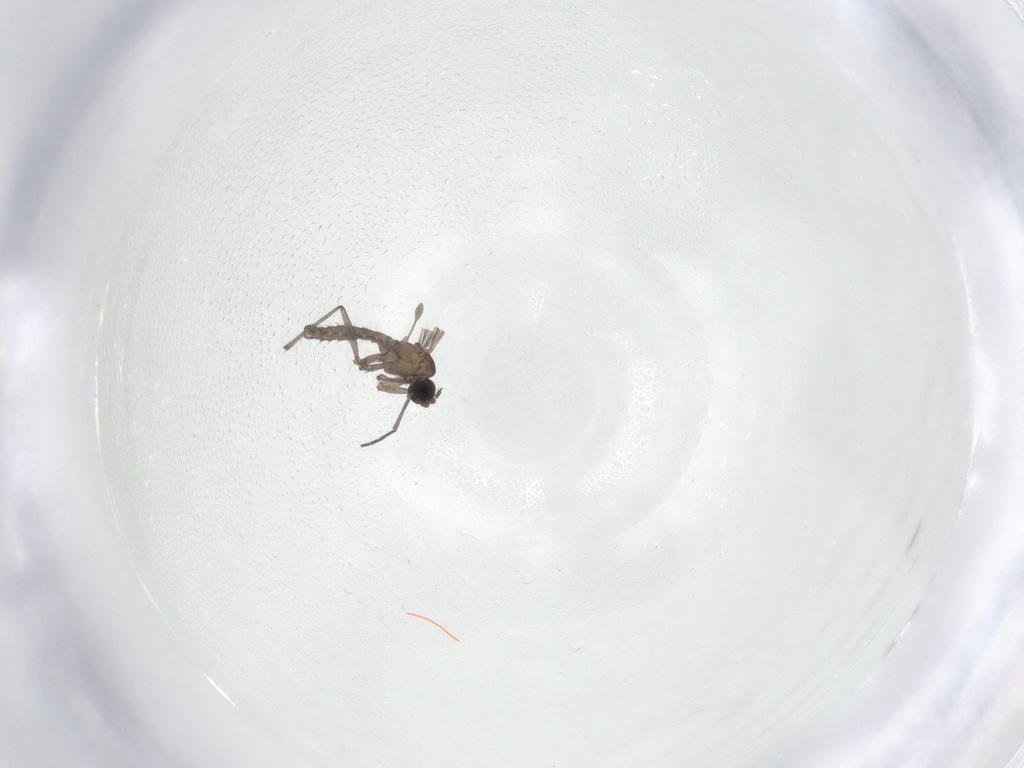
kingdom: Animalia
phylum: Arthropoda
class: Insecta
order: Diptera
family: Sciaridae
